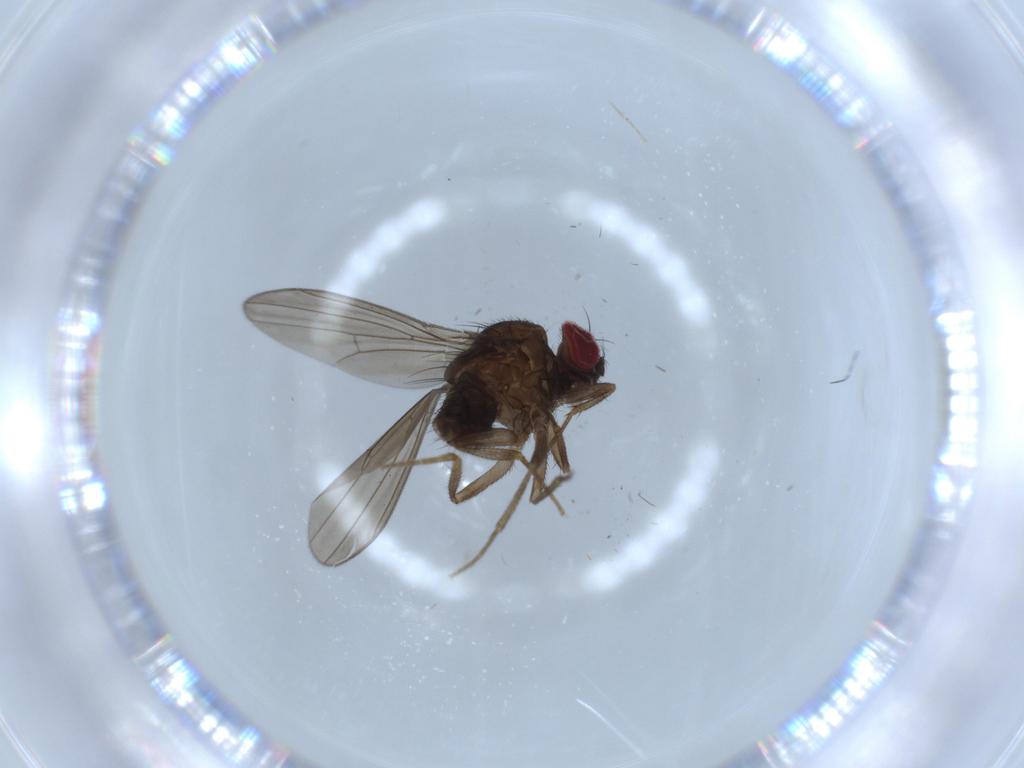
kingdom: Animalia
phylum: Arthropoda
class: Insecta
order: Diptera
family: Drosophilidae
